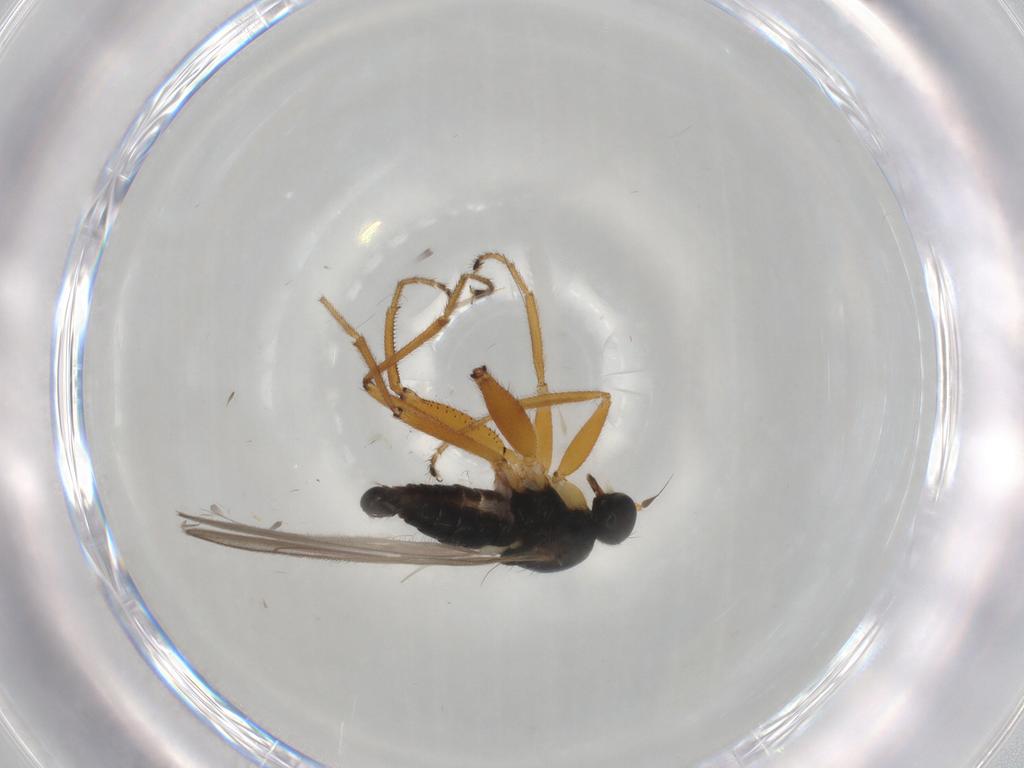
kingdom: Animalia
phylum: Arthropoda
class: Insecta
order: Diptera
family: Hybotidae
